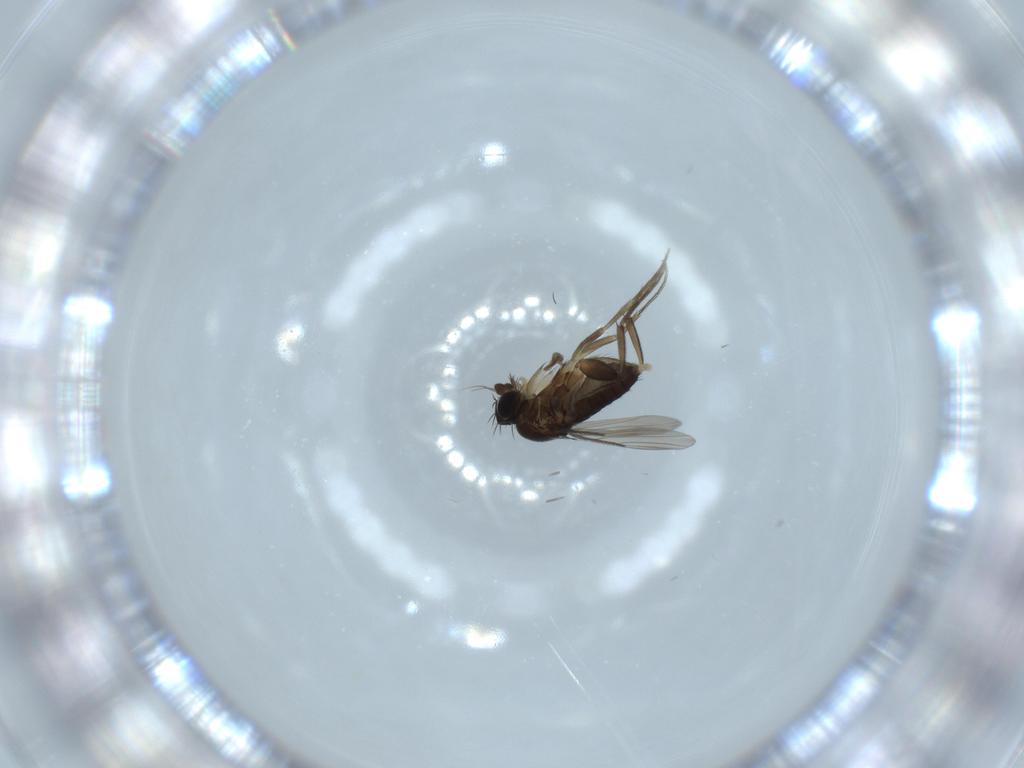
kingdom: Animalia
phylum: Arthropoda
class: Insecta
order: Diptera
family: Phoridae
